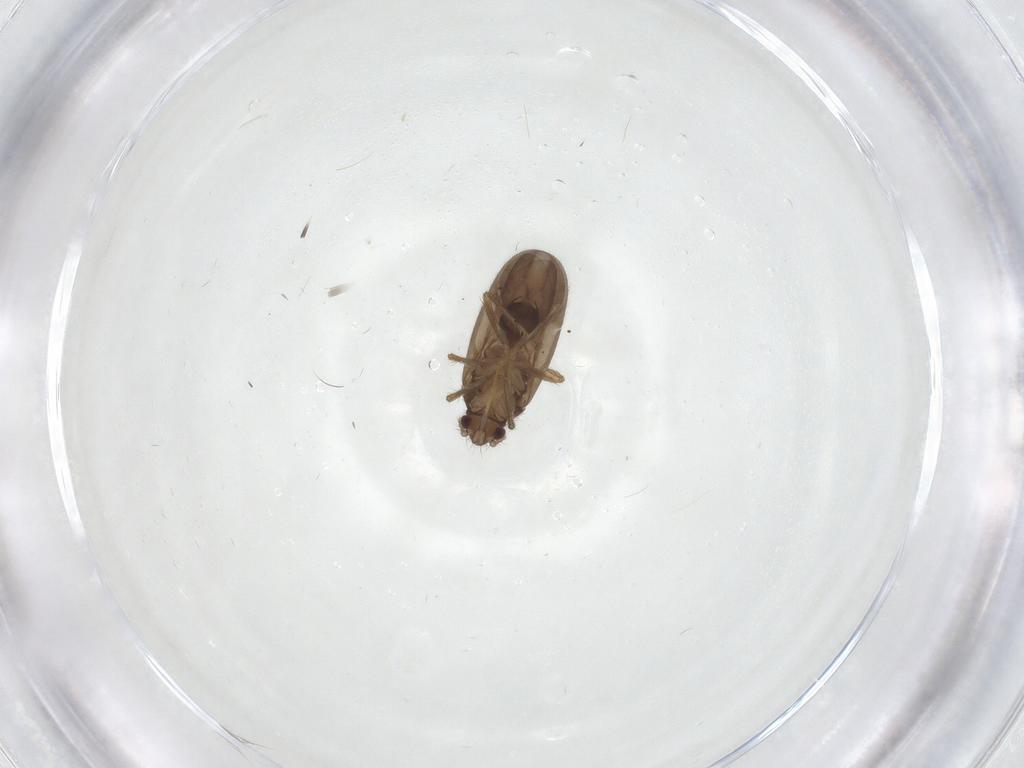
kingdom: Animalia
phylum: Arthropoda
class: Insecta
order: Hemiptera
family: Ceratocombidae
